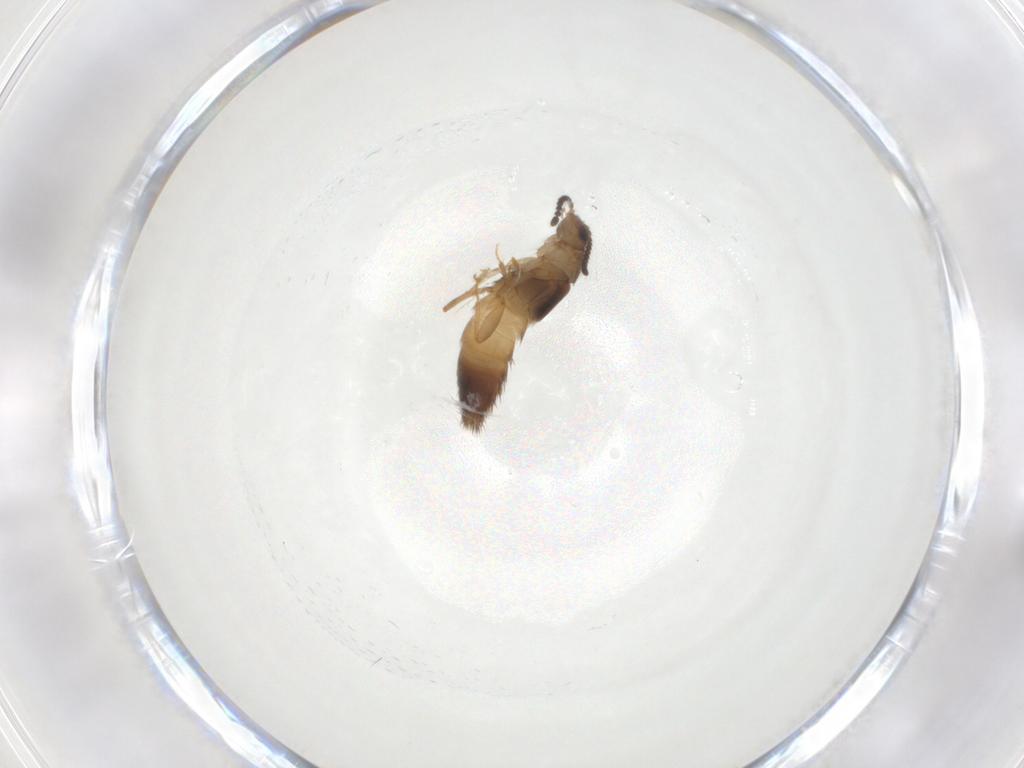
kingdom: Animalia
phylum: Arthropoda
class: Insecta
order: Coleoptera
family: Staphylinidae
